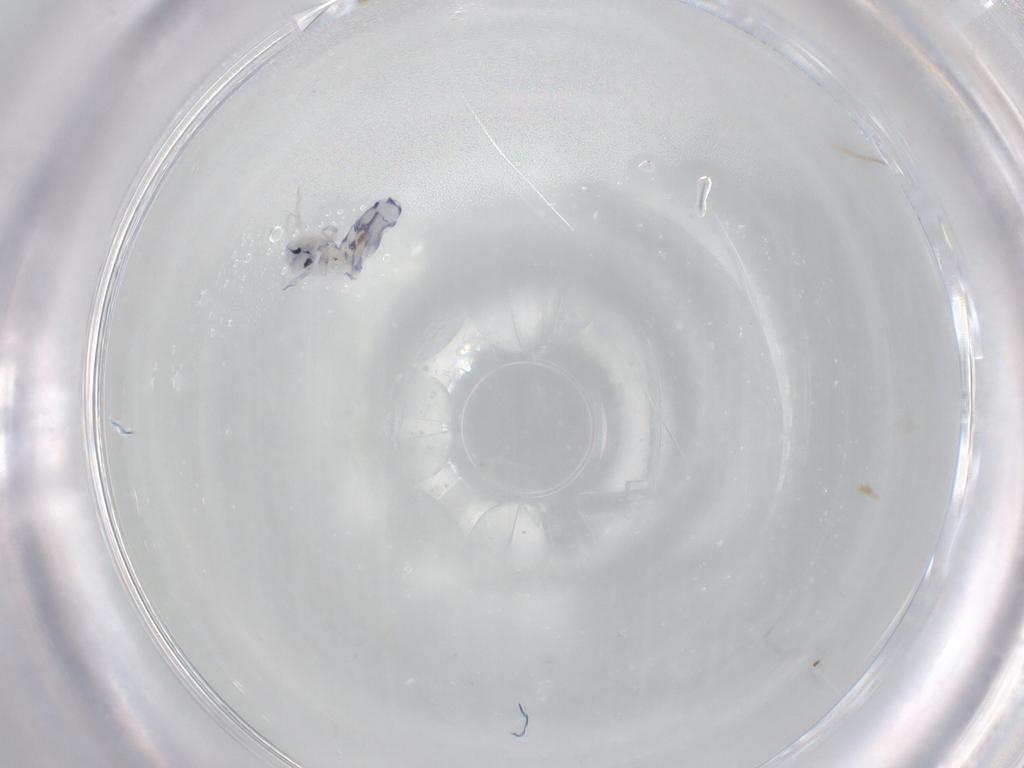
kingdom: Animalia
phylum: Arthropoda
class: Collembola
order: Entomobryomorpha
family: Entomobryidae
